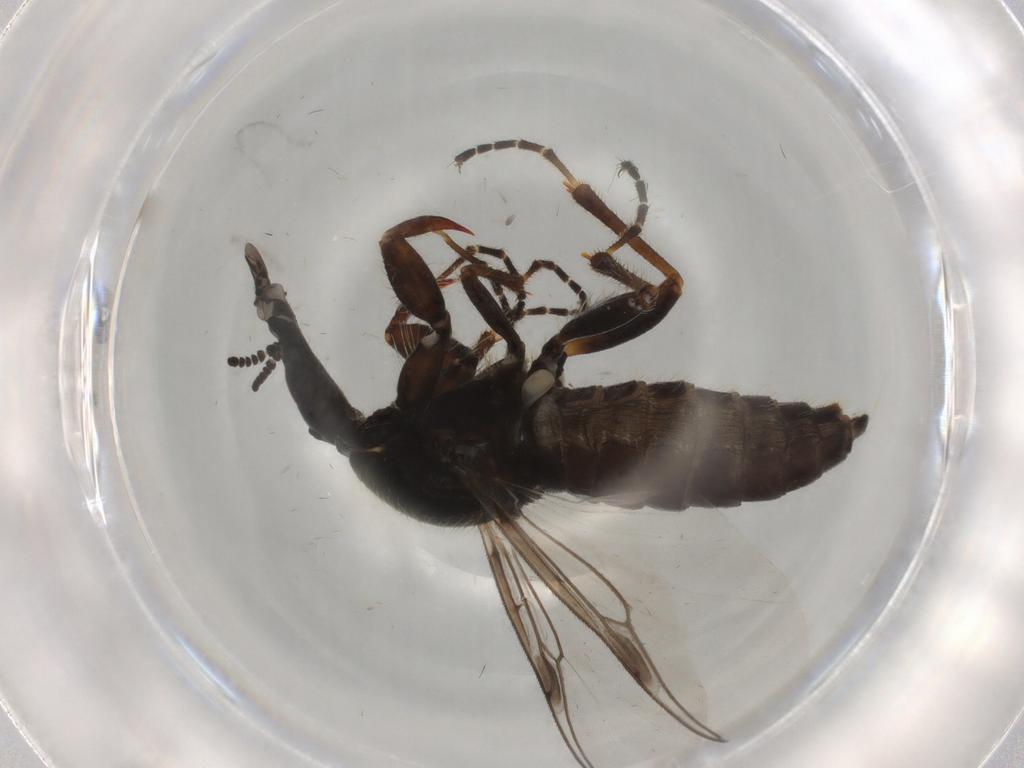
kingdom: Animalia
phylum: Arthropoda
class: Insecta
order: Diptera
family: Bibionidae
